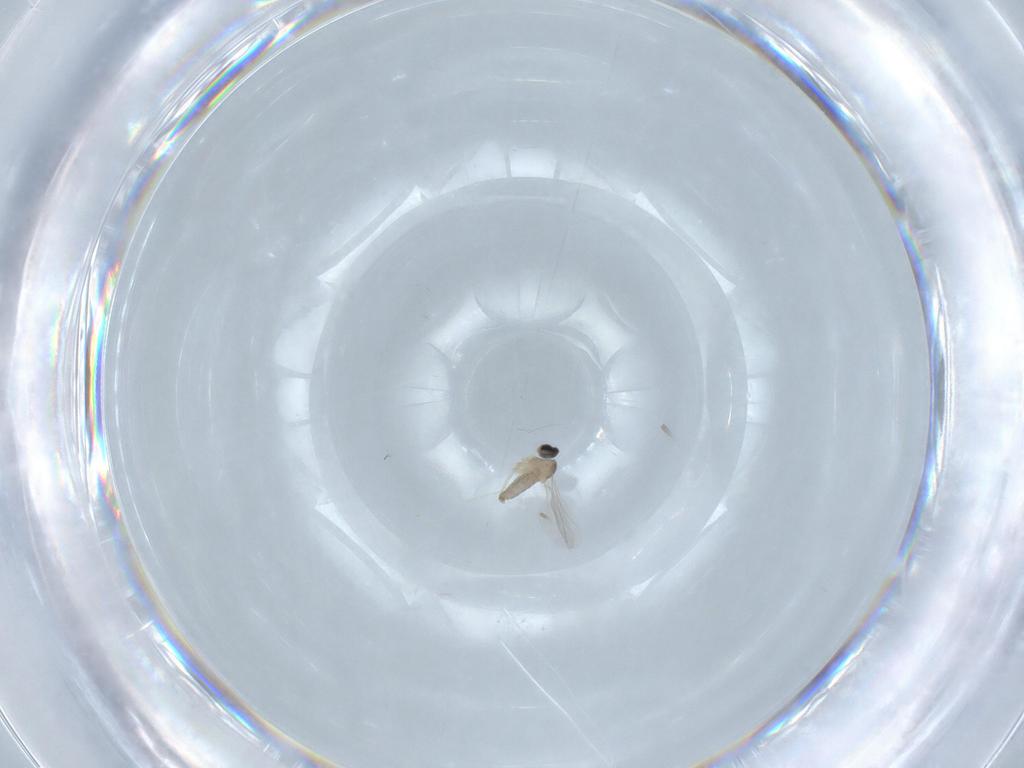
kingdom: Animalia
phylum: Arthropoda
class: Insecta
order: Diptera
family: Cecidomyiidae
